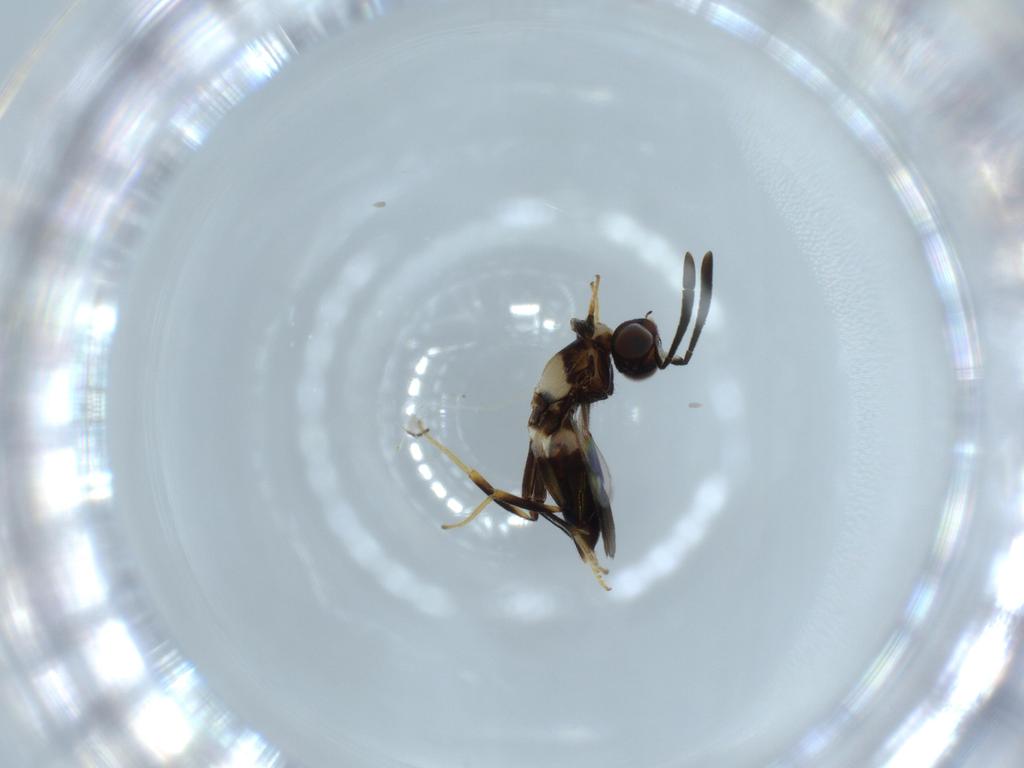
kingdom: Animalia
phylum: Arthropoda
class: Insecta
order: Hymenoptera
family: Eupelmidae
